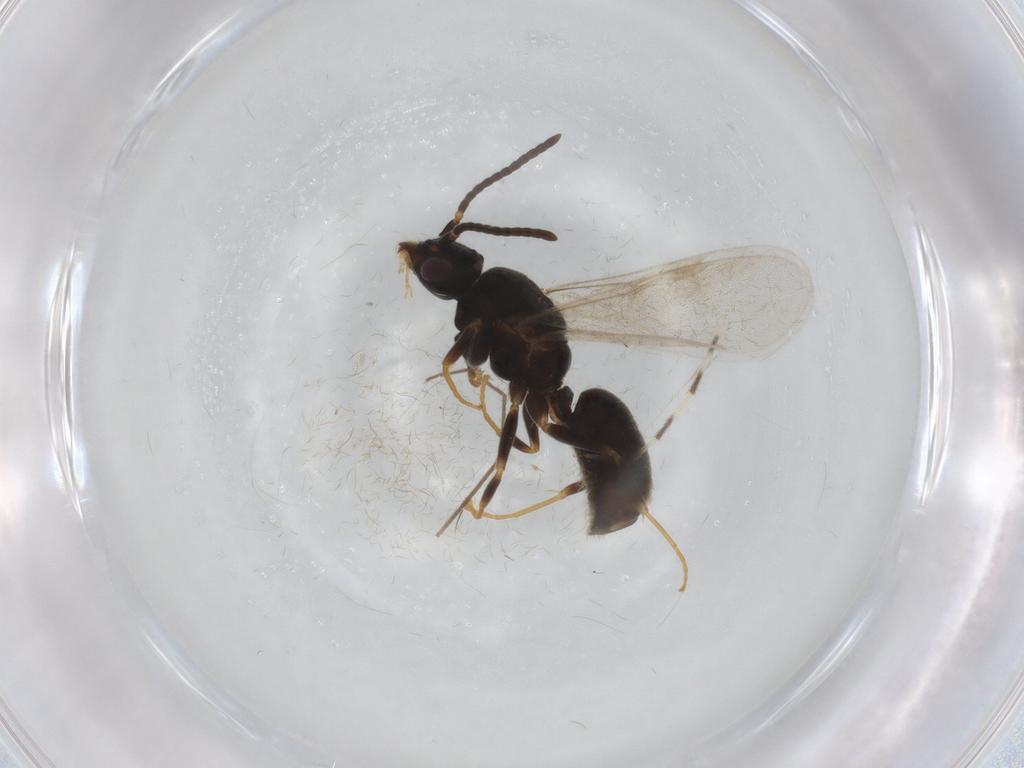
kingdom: Animalia
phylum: Arthropoda
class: Insecta
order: Hymenoptera
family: Formicidae
